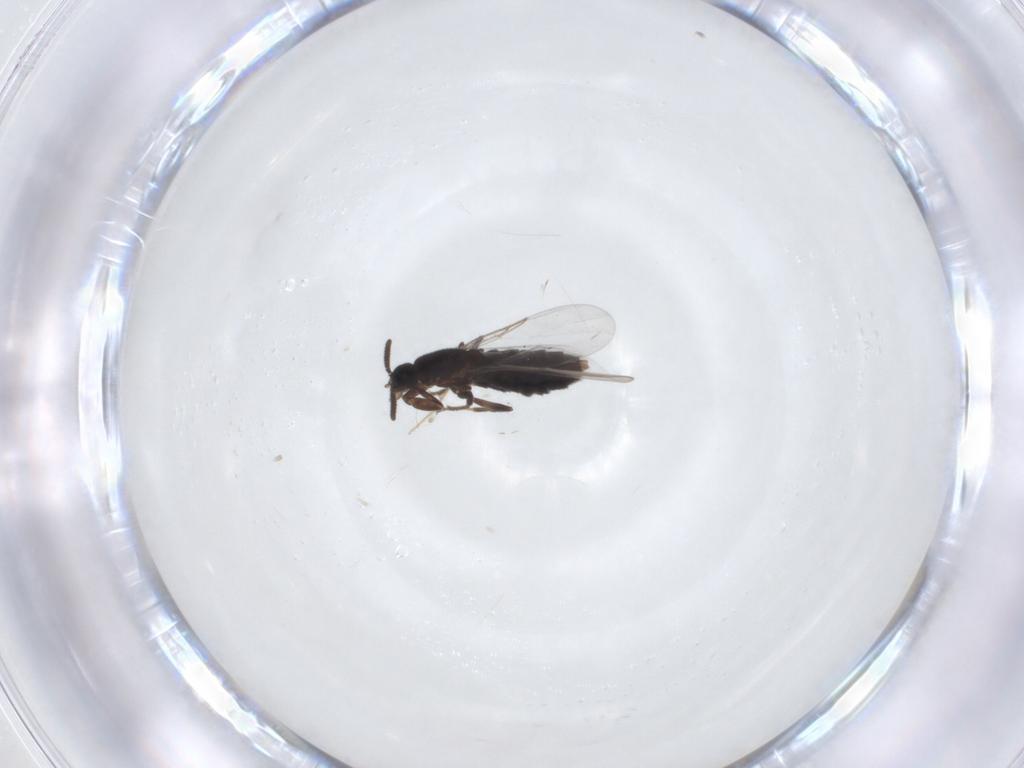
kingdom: Animalia
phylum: Arthropoda
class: Insecta
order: Diptera
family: Scatopsidae
